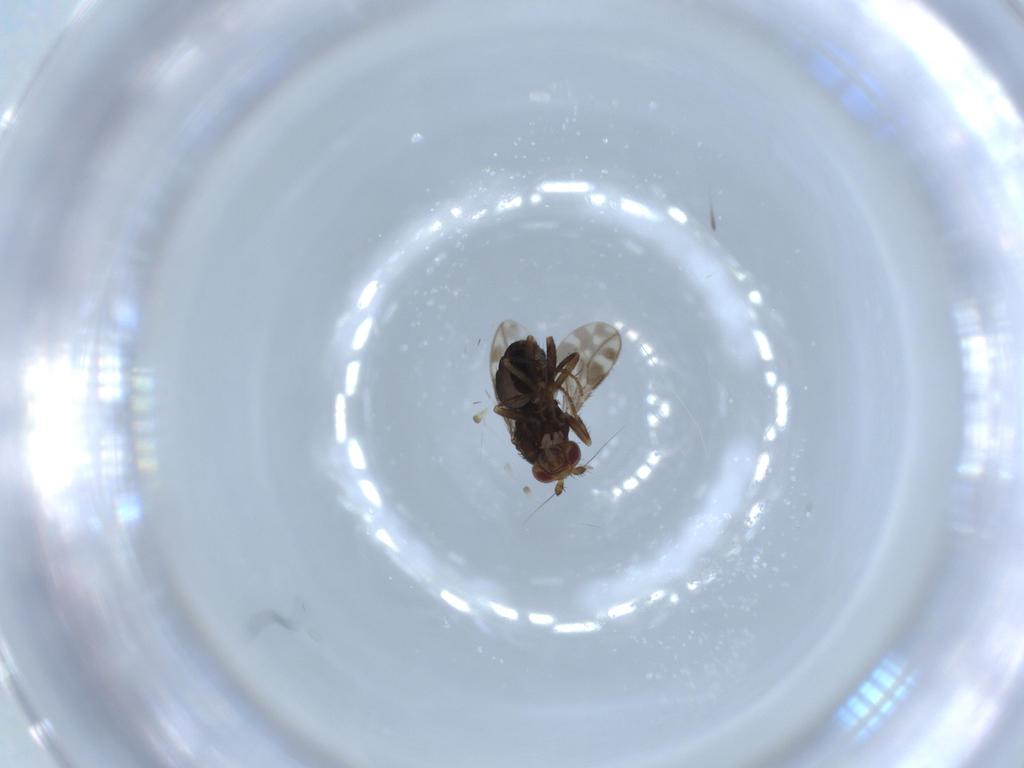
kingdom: Animalia
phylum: Arthropoda
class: Insecta
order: Diptera
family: Sphaeroceridae
